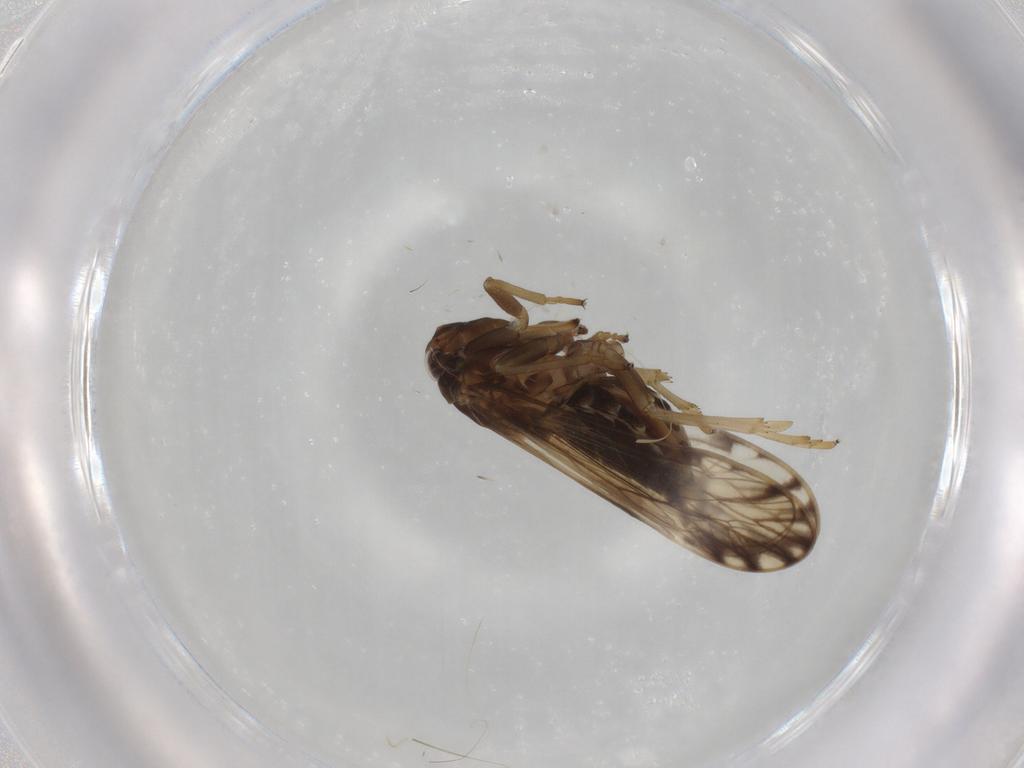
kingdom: Animalia
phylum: Arthropoda
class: Insecta
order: Hemiptera
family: Delphacidae
